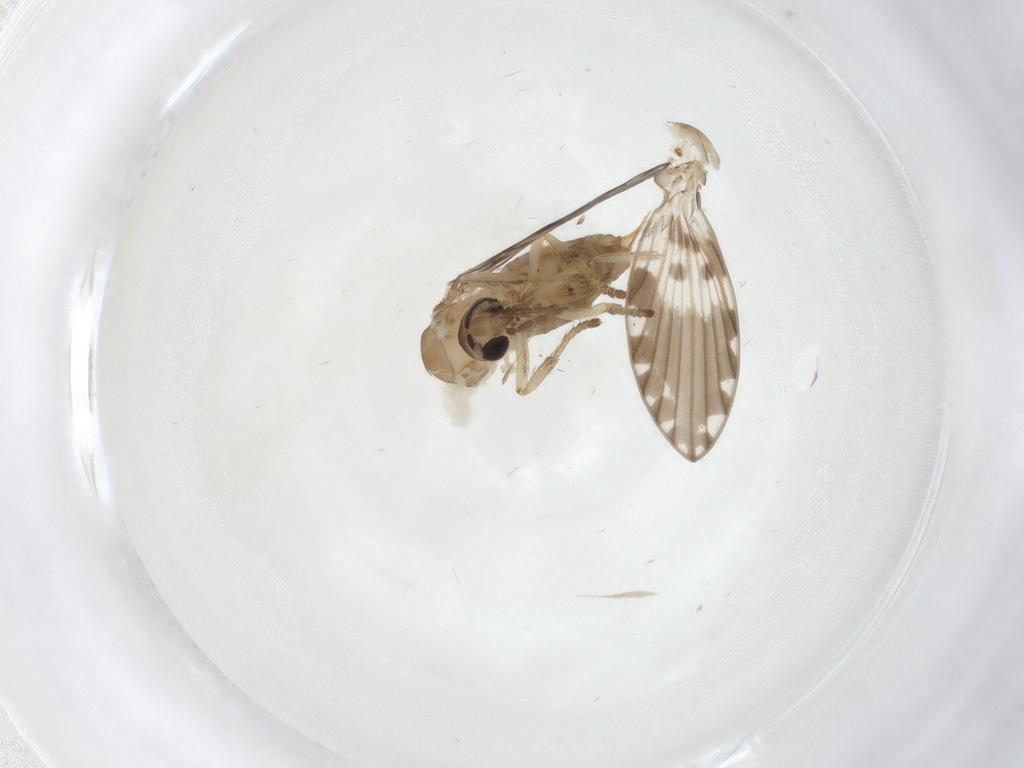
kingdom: Animalia
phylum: Arthropoda
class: Insecta
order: Diptera
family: Psychodidae
